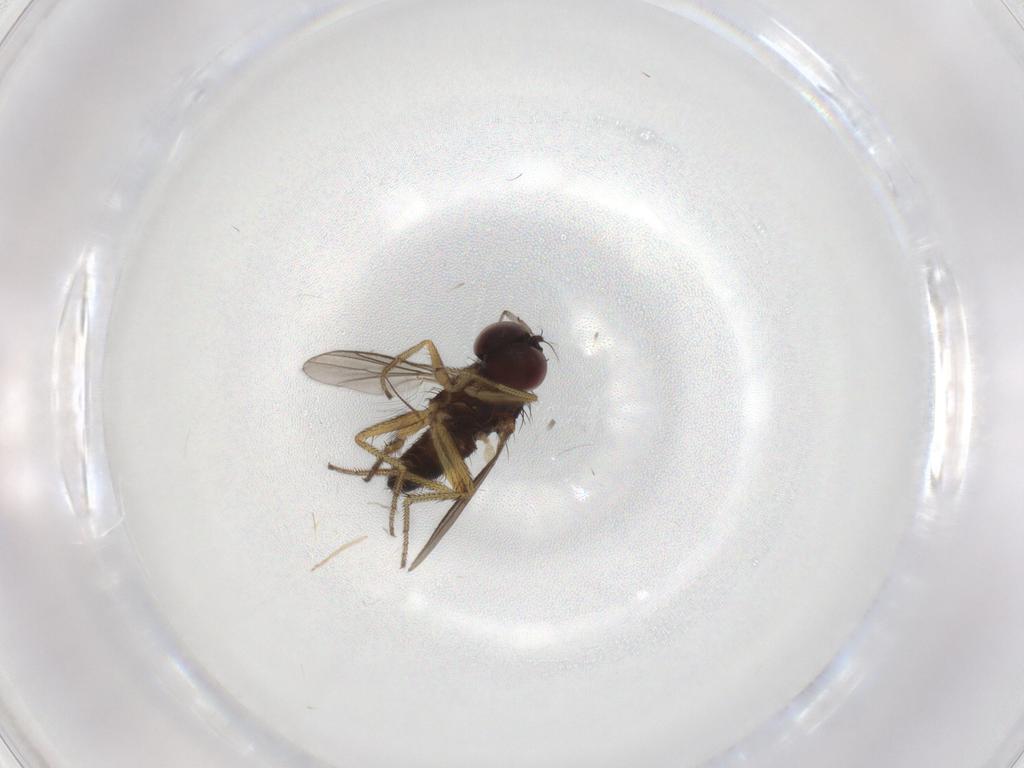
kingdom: Animalia
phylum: Arthropoda
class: Insecta
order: Diptera
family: Sciaridae
